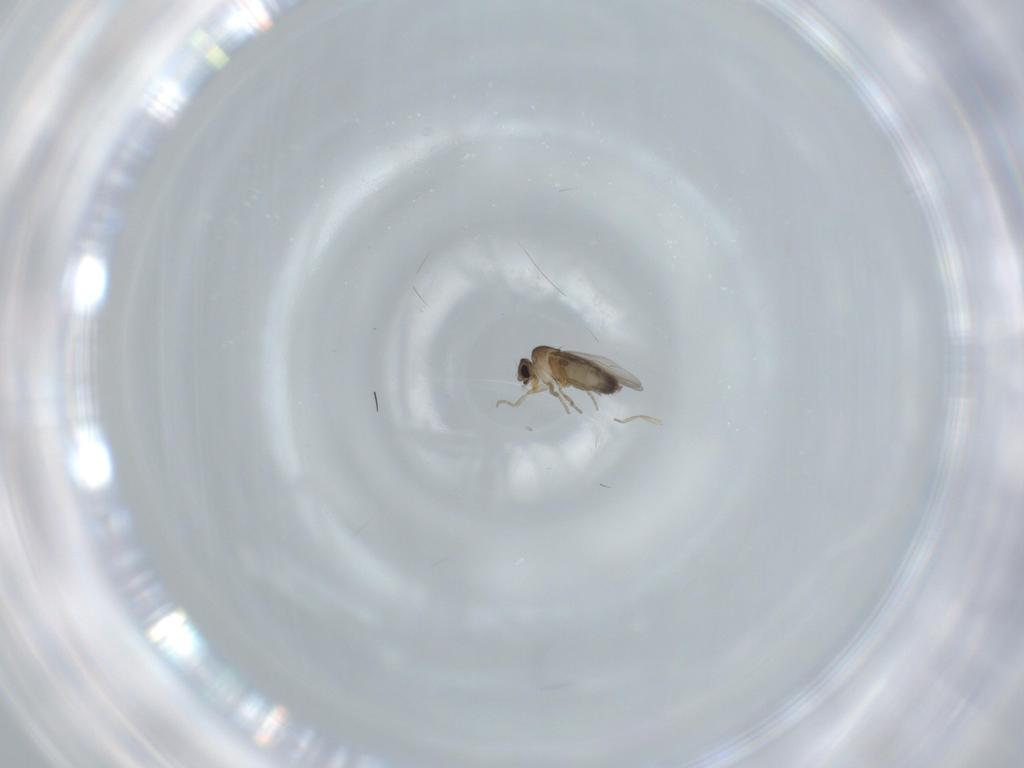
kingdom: Animalia
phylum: Arthropoda
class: Insecta
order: Diptera
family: Phoridae
